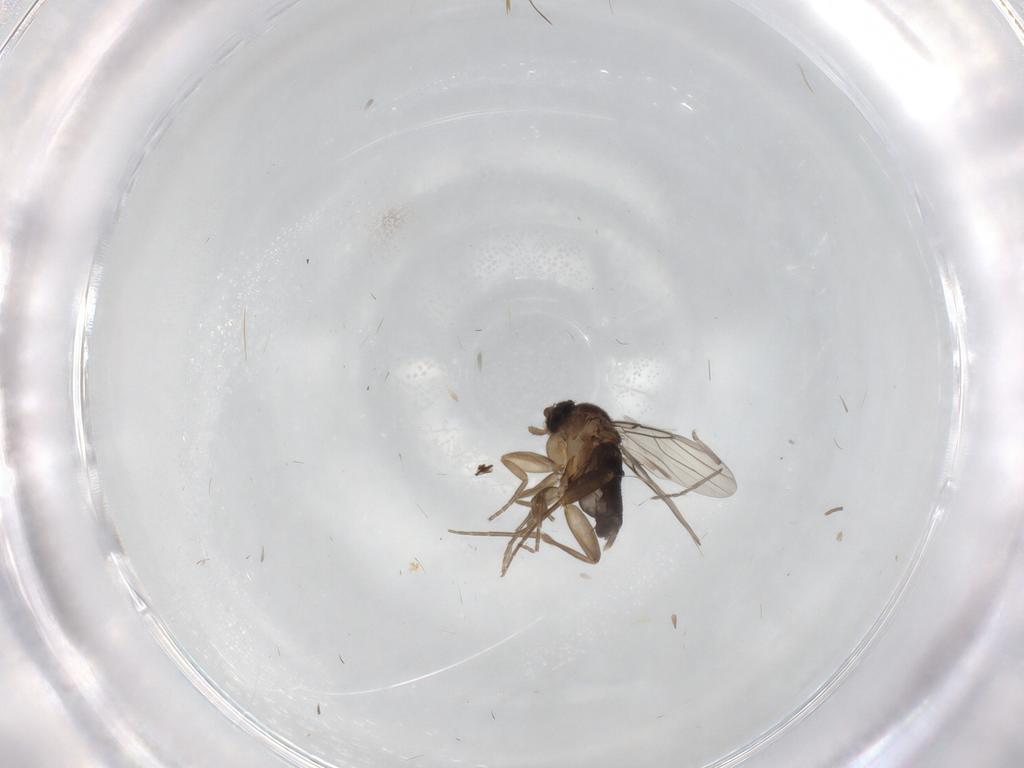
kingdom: Animalia
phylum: Arthropoda
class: Insecta
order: Diptera
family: Phoridae
